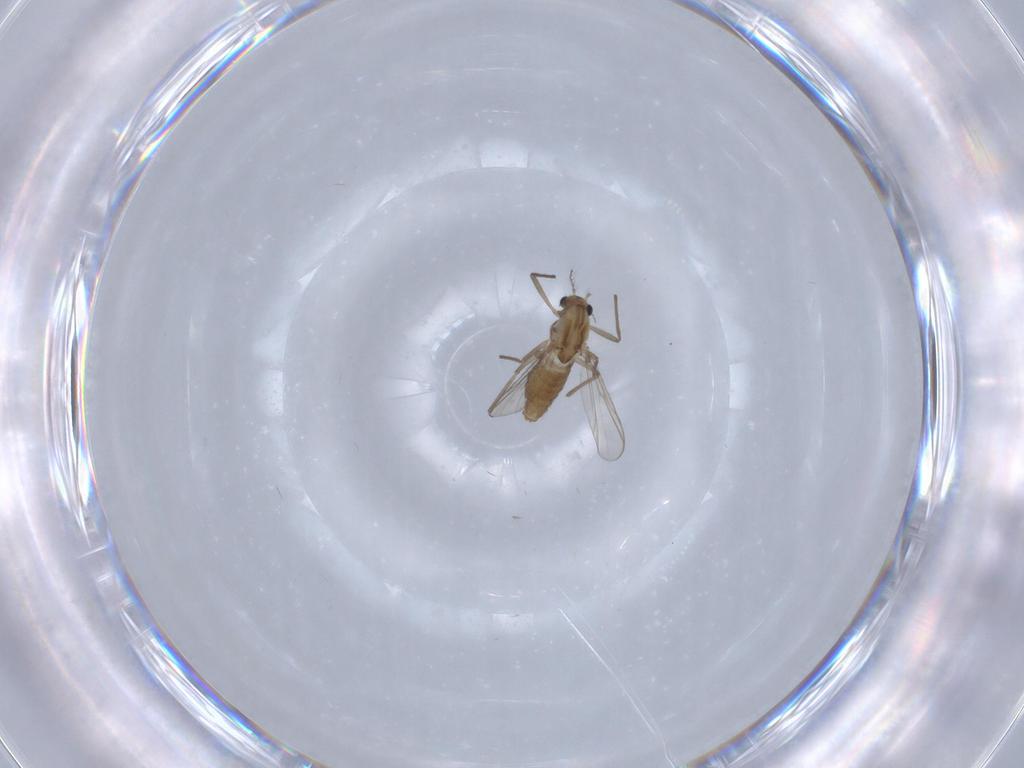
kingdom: Animalia
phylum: Arthropoda
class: Insecta
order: Diptera
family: Chironomidae
